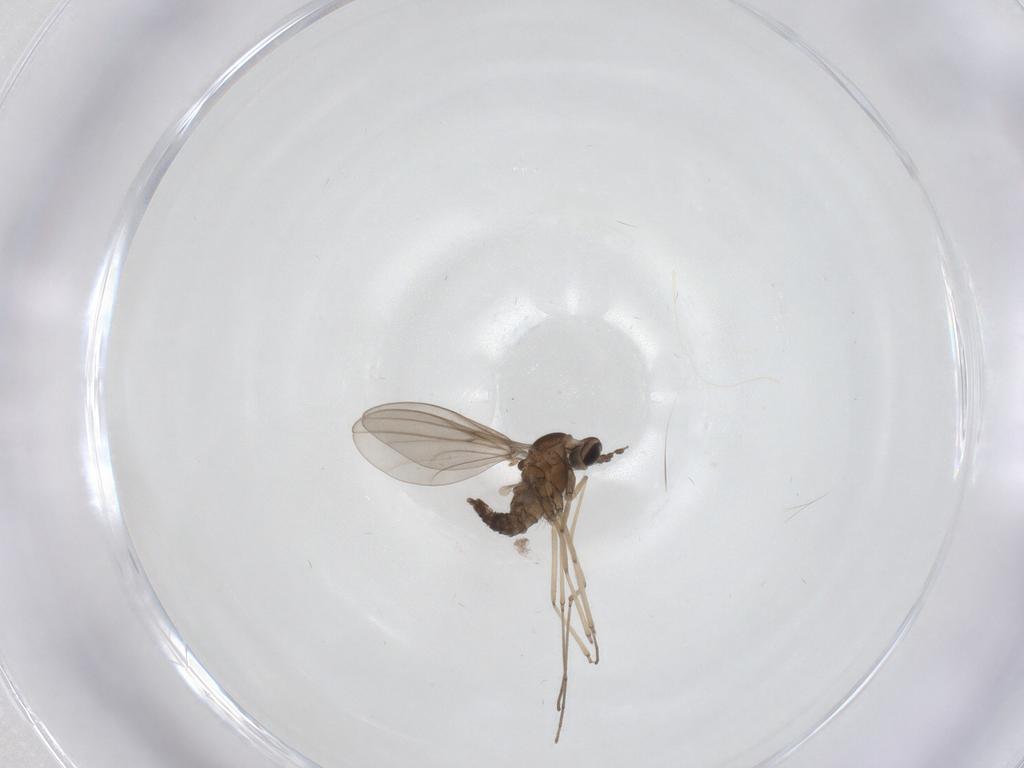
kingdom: Animalia
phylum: Arthropoda
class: Insecta
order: Diptera
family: Cecidomyiidae
